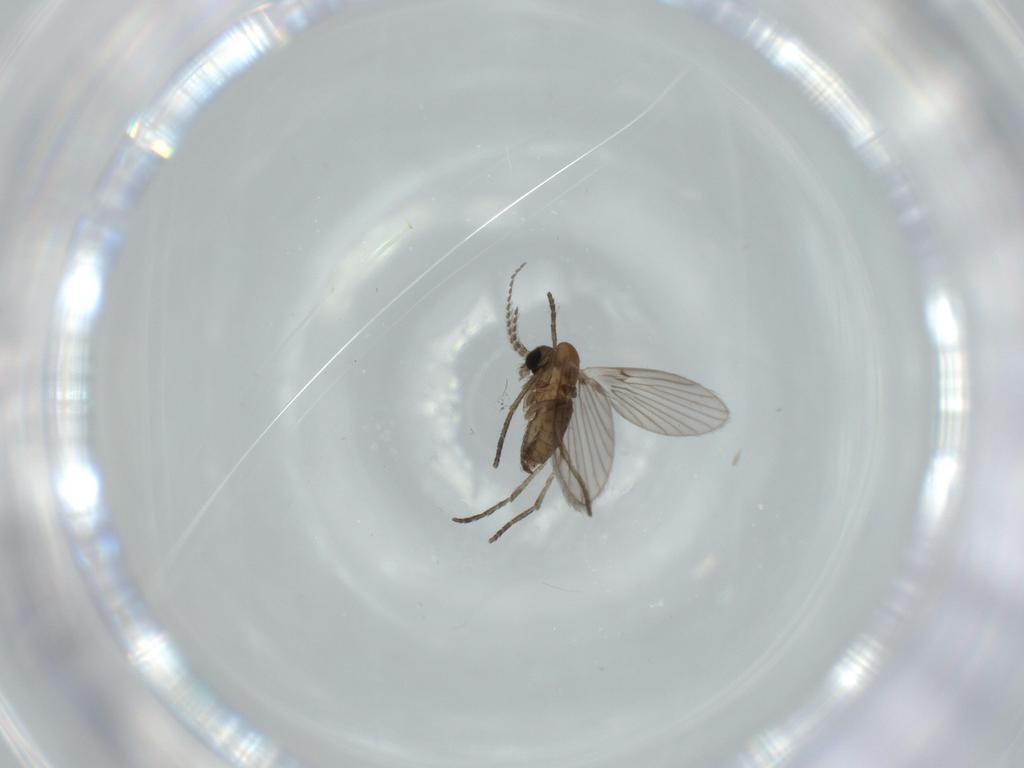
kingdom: Animalia
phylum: Arthropoda
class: Insecta
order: Diptera
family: Psychodidae
